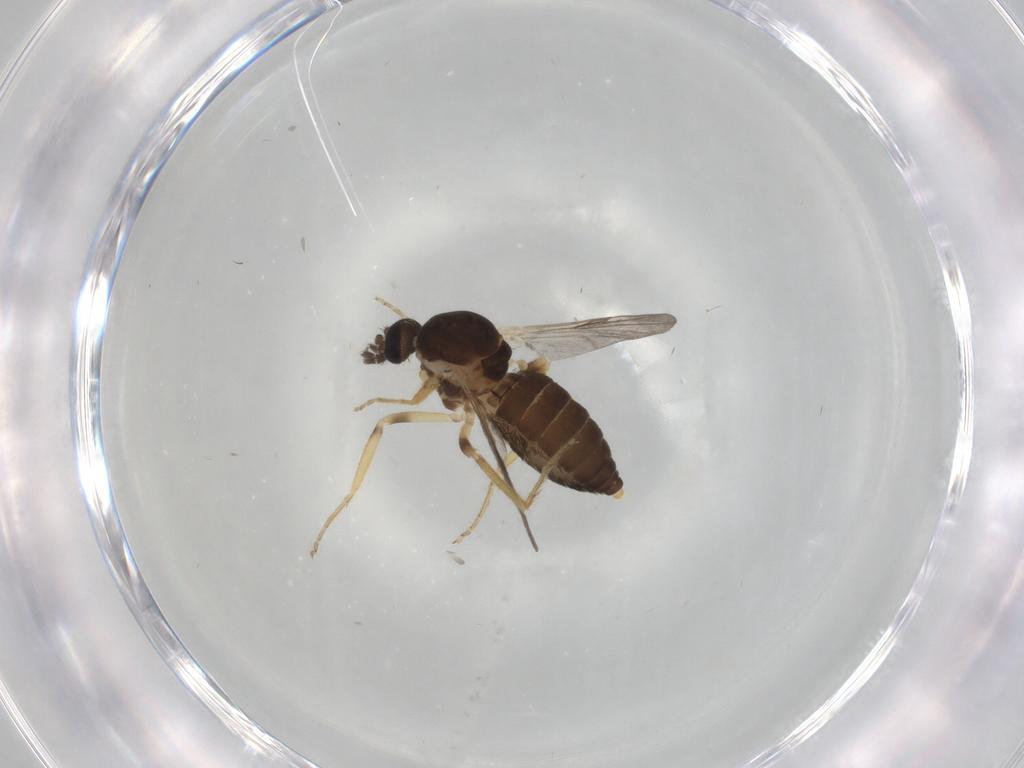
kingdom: Animalia
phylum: Arthropoda
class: Insecta
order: Diptera
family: Ceratopogonidae
